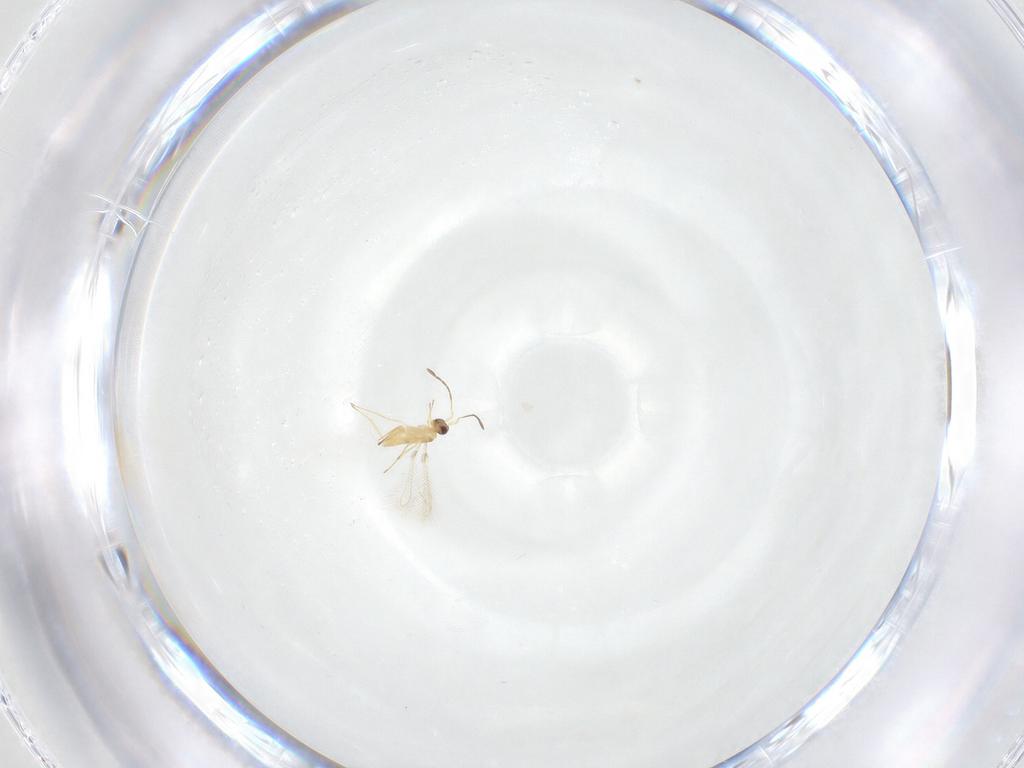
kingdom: Animalia
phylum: Arthropoda
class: Insecta
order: Hymenoptera
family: Mymaridae
